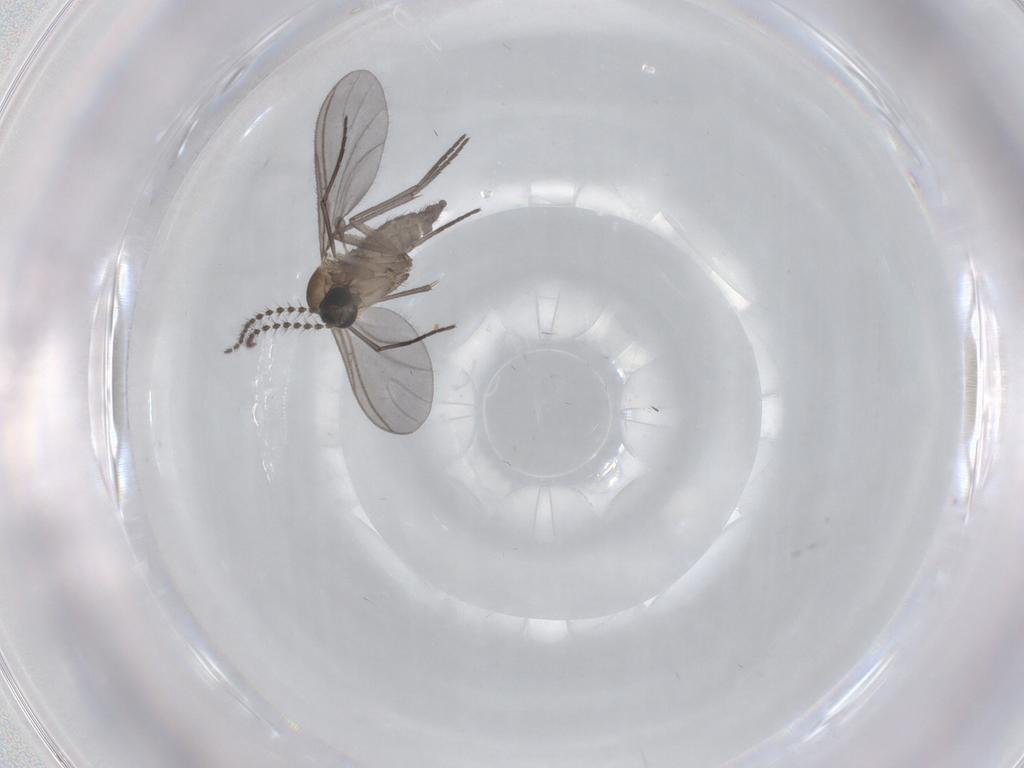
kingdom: Animalia
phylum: Arthropoda
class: Insecta
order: Diptera
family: Sciaridae
